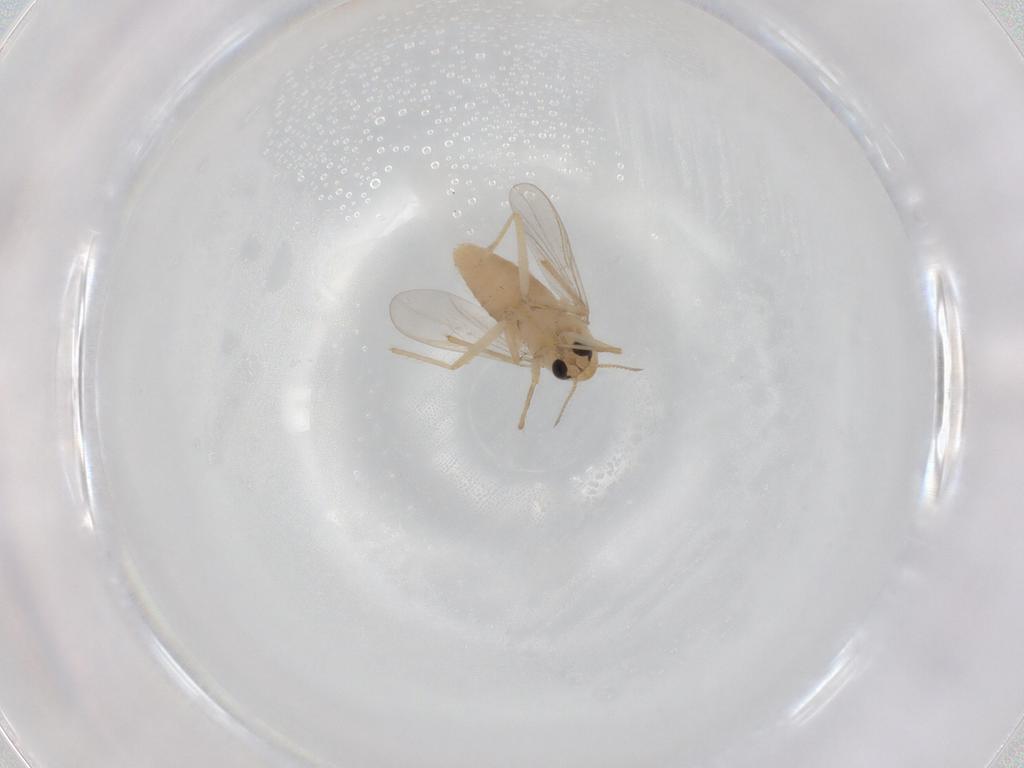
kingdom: Animalia
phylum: Arthropoda
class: Insecta
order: Diptera
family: Chironomidae
